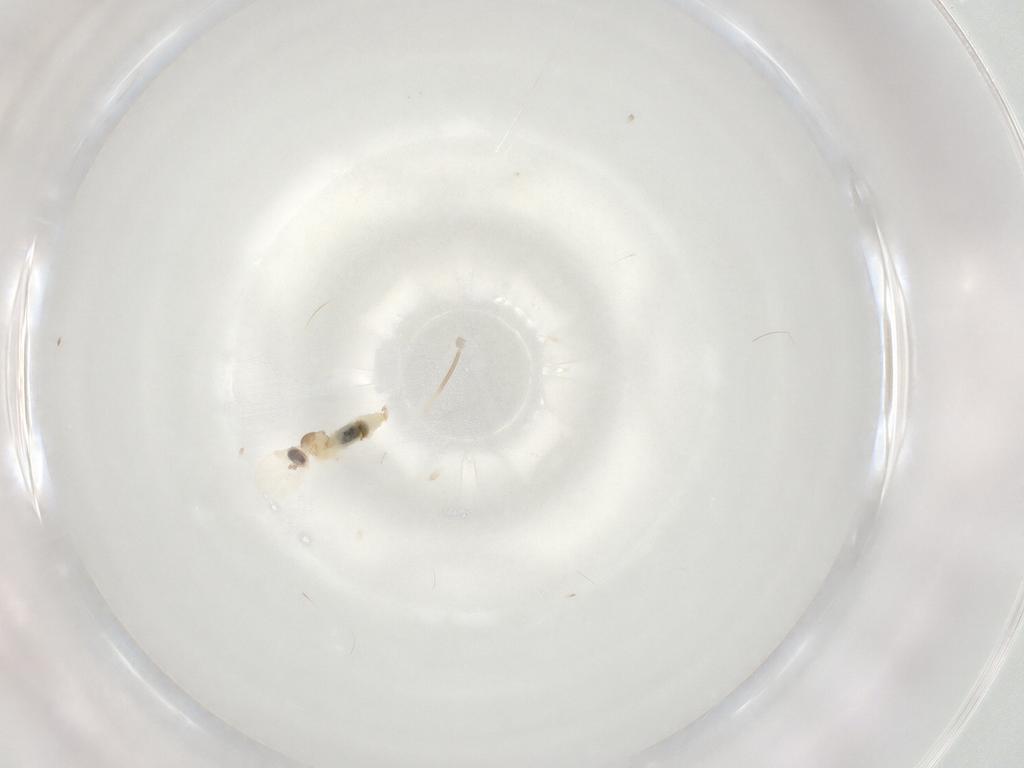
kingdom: Animalia
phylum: Arthropoda
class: Insecta
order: Diptera
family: Cecidomyiidae
